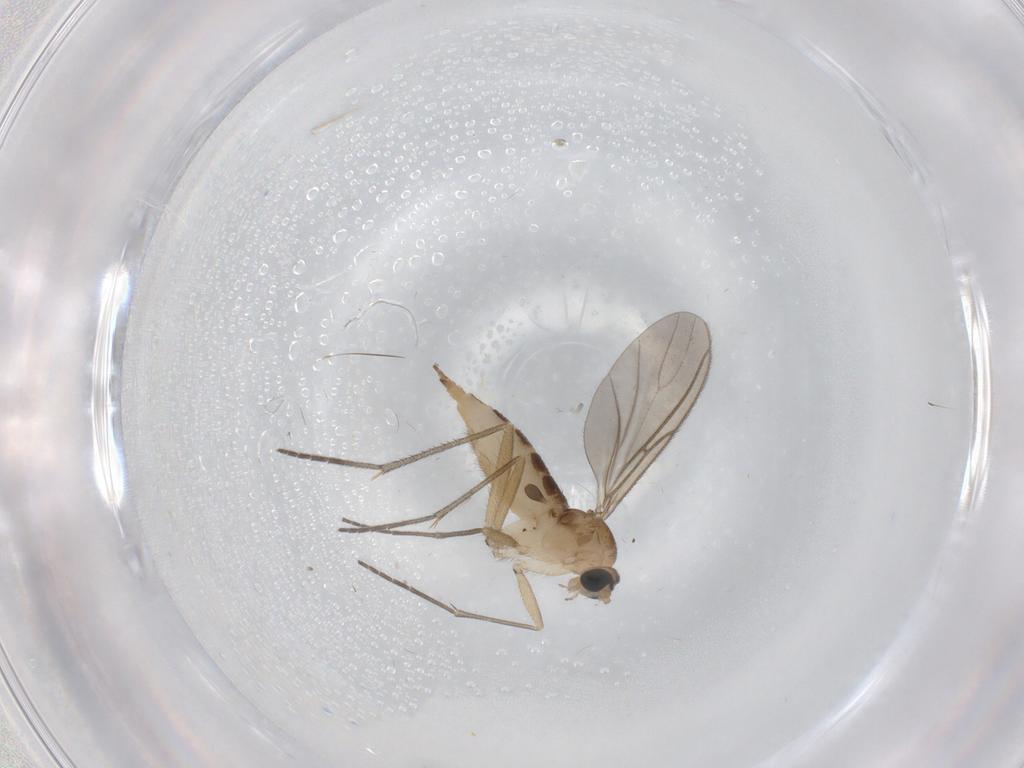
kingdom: Animalia
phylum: Arthropoda
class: Insecta
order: Diptera
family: Sciaridae
